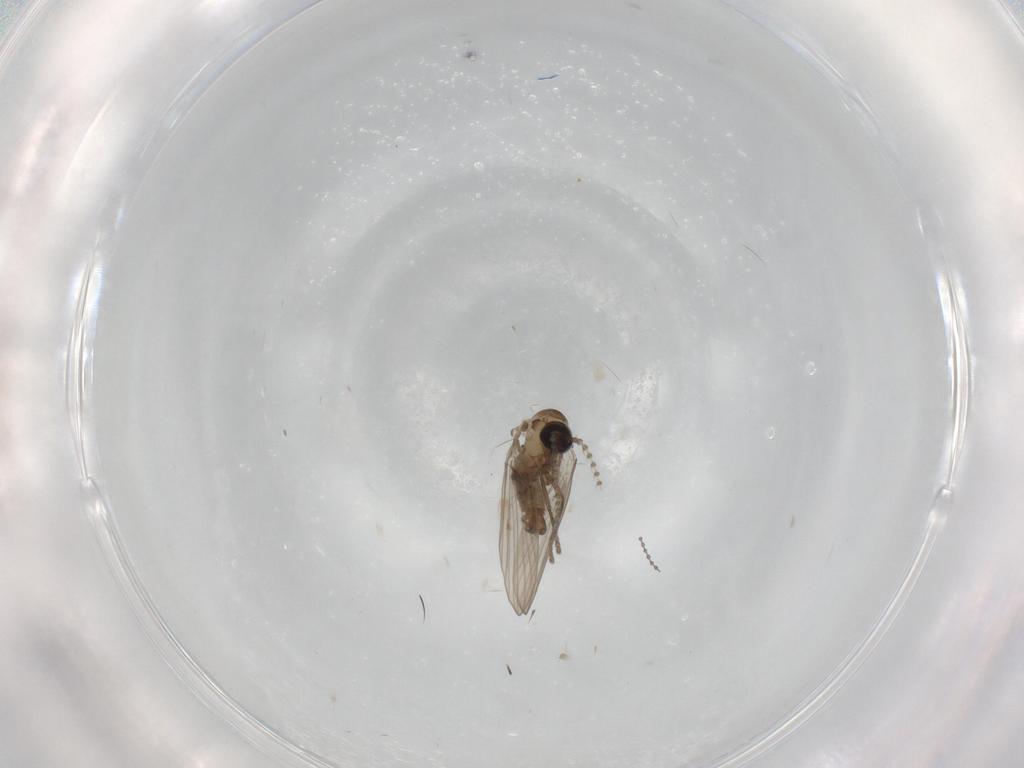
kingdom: Animalia
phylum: Arthropoda
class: Insecta
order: Diptera
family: Psychodidae
